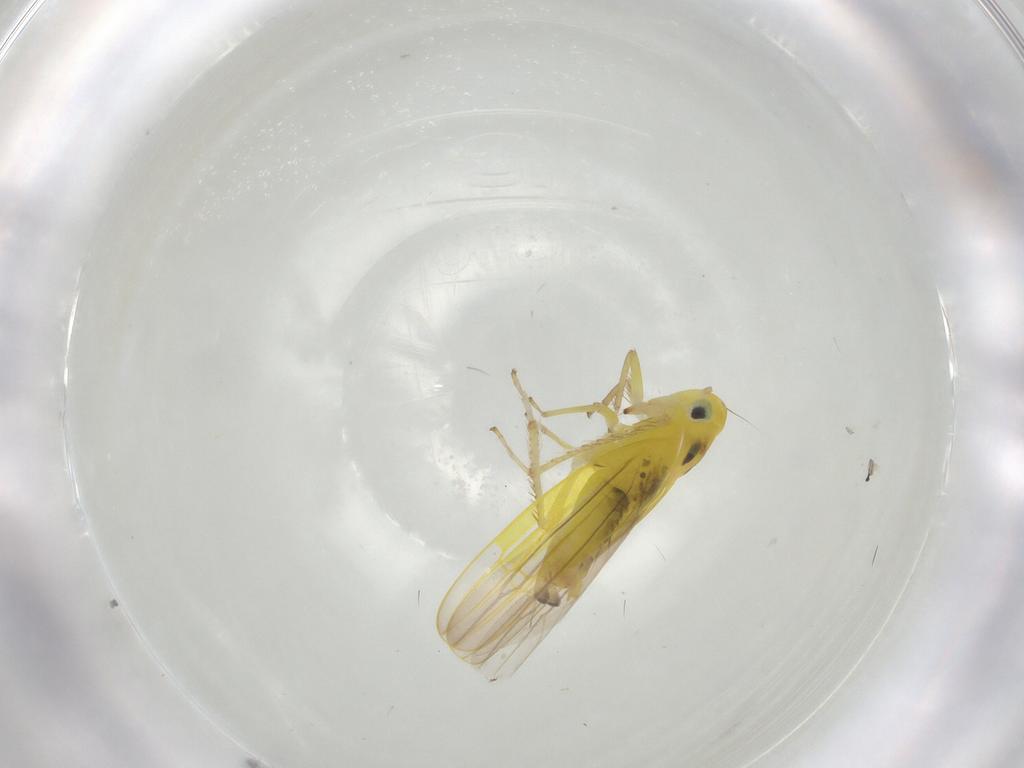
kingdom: Animalia
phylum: Arthropoda
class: Insecta
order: Hemiptera
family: Cicadellidae
